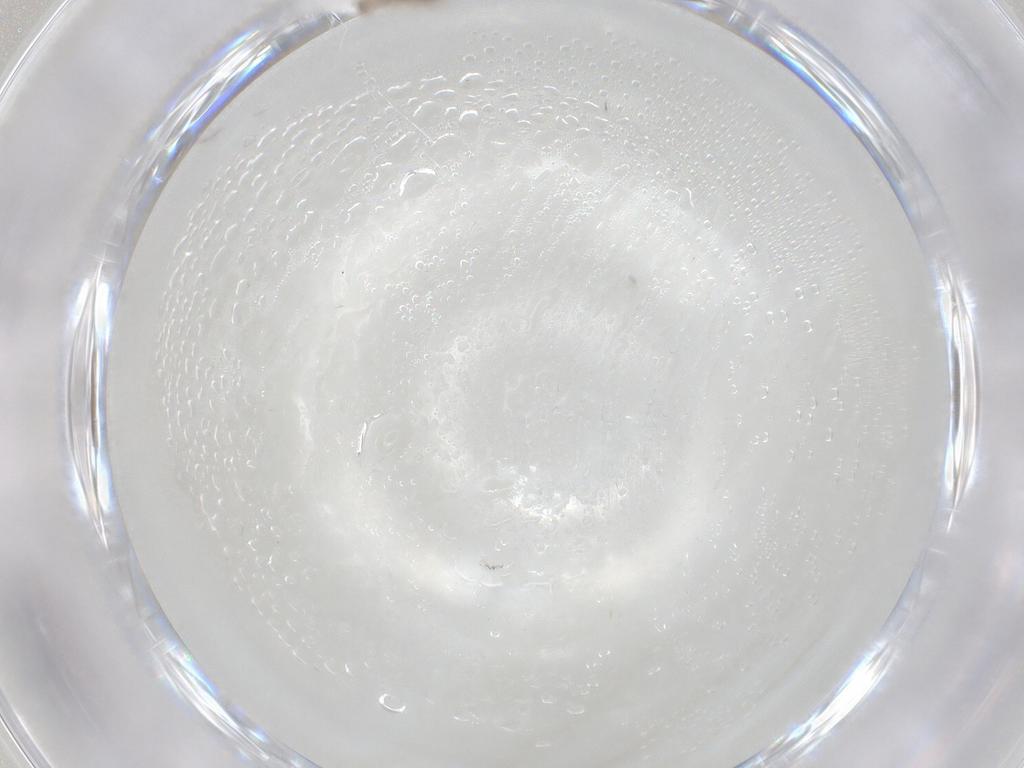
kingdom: Animalia
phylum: Arthropoda
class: Insecta
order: Diptera
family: Cecidomyiidae
